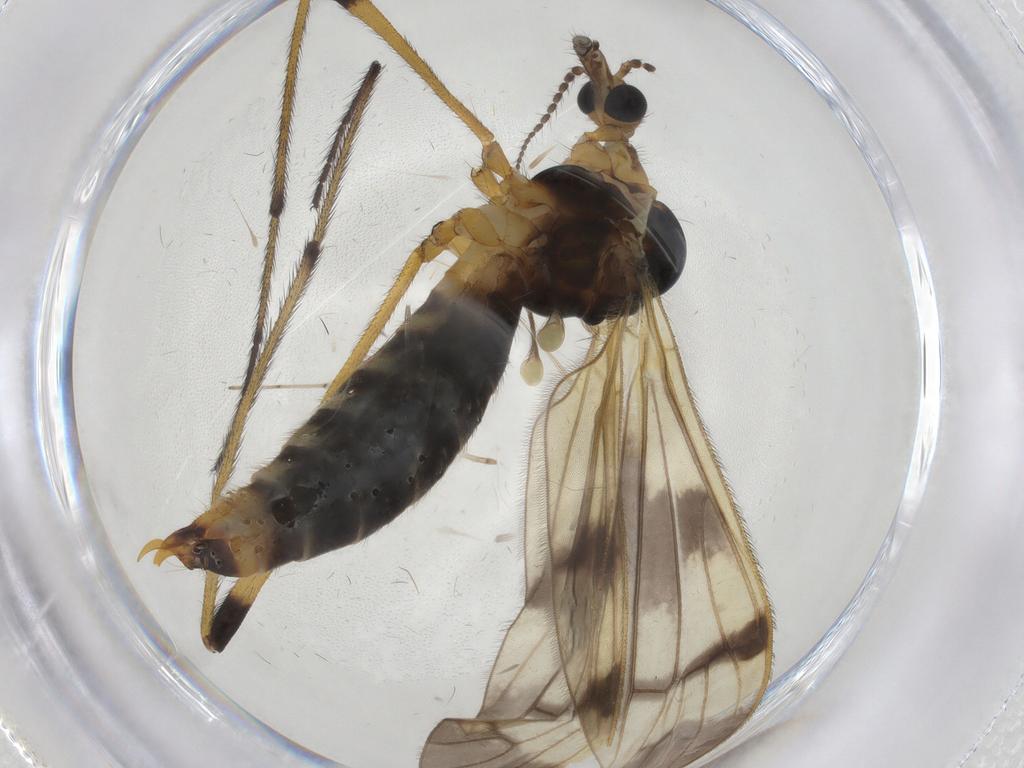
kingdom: Animalia
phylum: Arthropoda
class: Insecta
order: Diptera
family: Limoniidae
